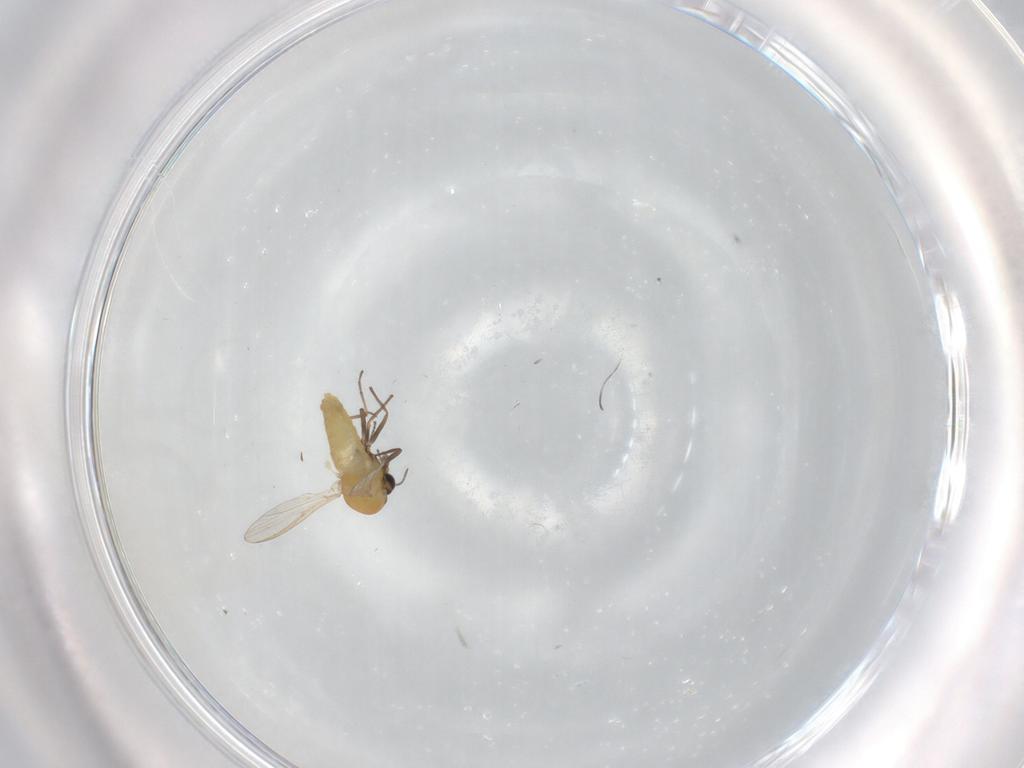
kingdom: Animalia
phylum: Arthropoda
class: Insecta
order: Diptera
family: Chironomidae
